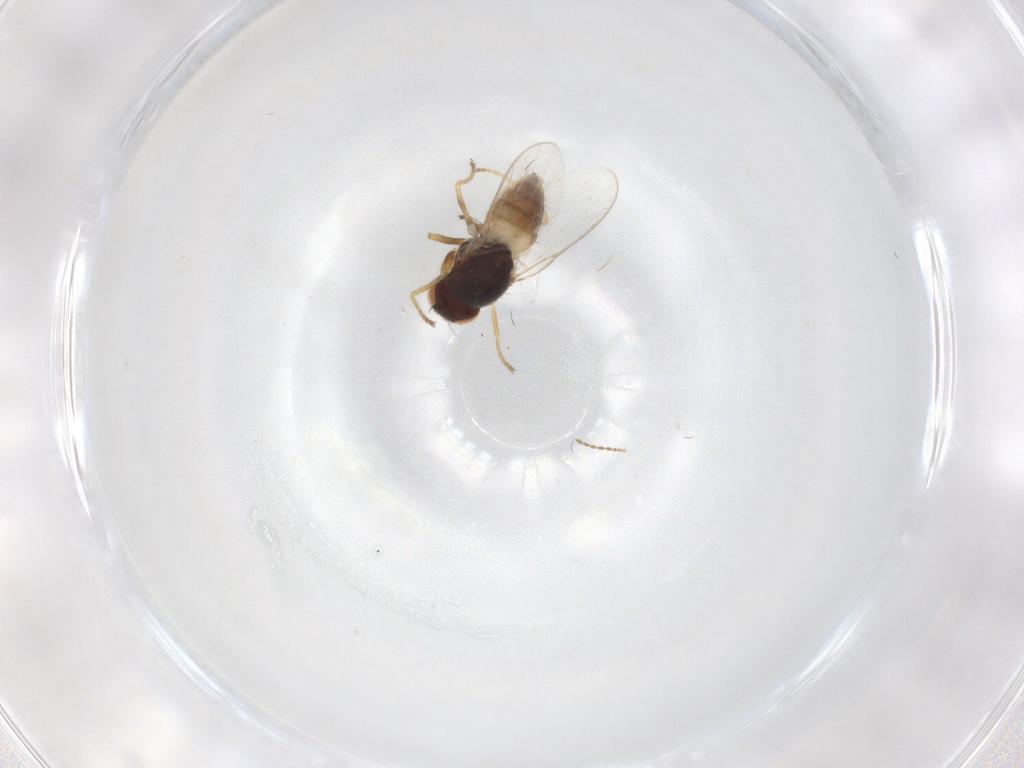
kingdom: Animalia
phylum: Arthropoda
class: Insecta
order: Diptera
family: Chloropidae
